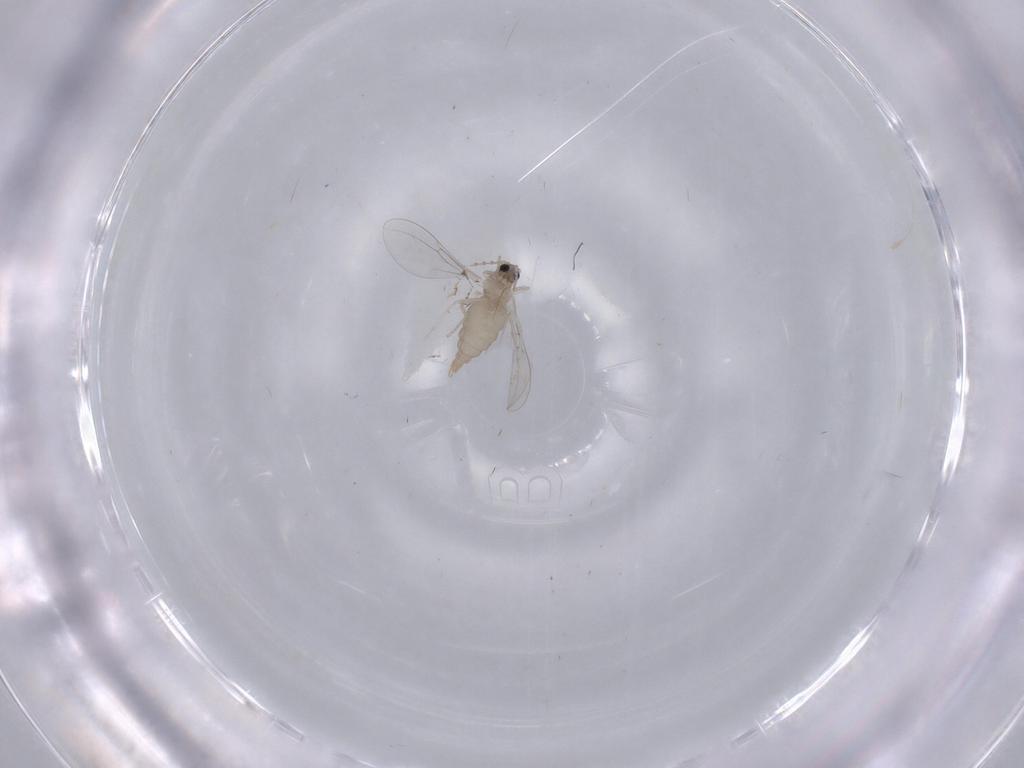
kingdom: Animalia
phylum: Arthropoda
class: Insecta
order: Diptera
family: Cecidomyiidae
